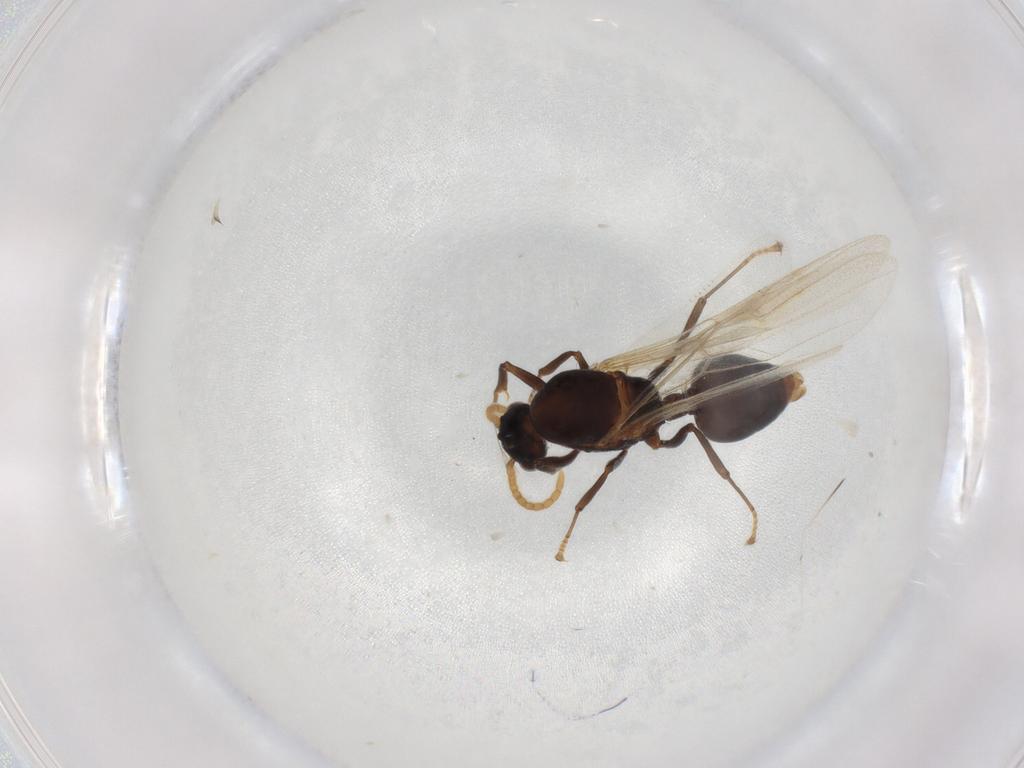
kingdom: Animalia
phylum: Arthropoda
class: Insecta
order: Hymenoptera
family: Formicidae
